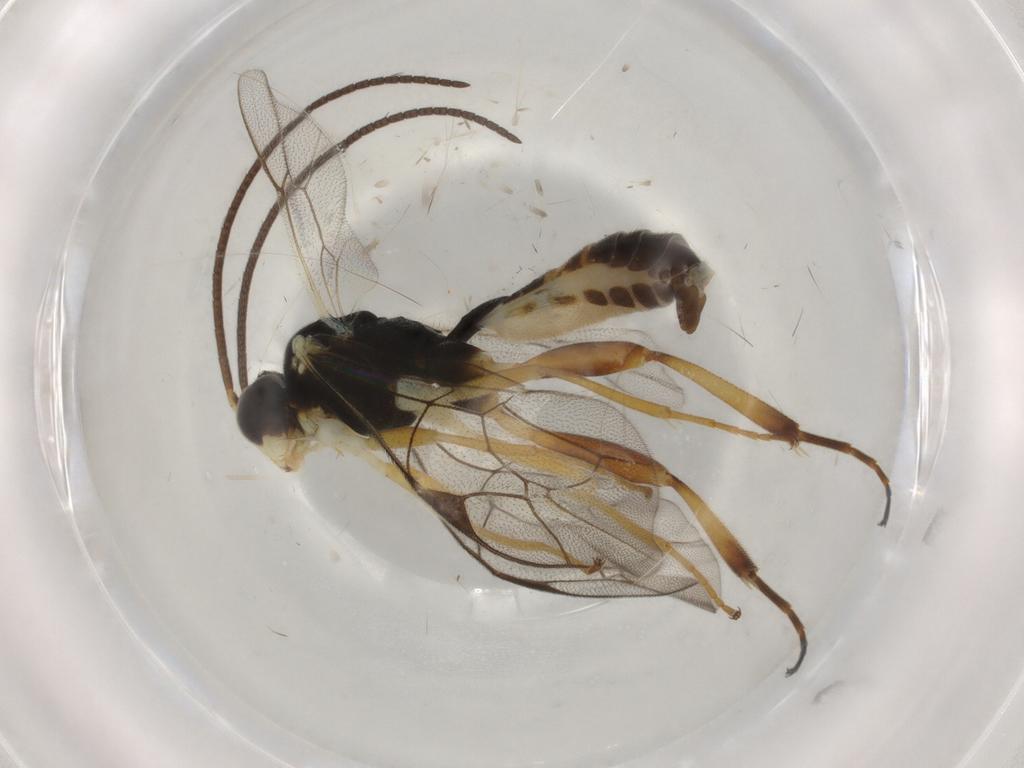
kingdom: Animalia
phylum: Arthropoda
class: Insecta
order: Hymenoptera
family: Ichneumonidae
